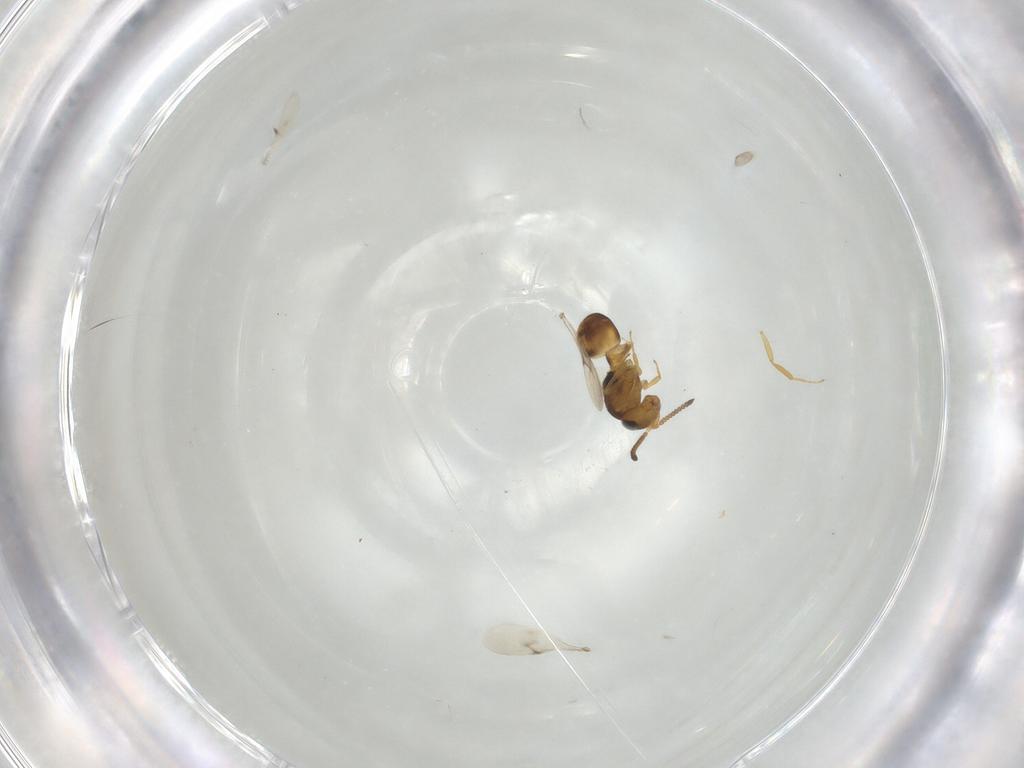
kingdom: Animalia
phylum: Arthropoda
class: Insecta
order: Hymenoptera
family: Scelionidae
